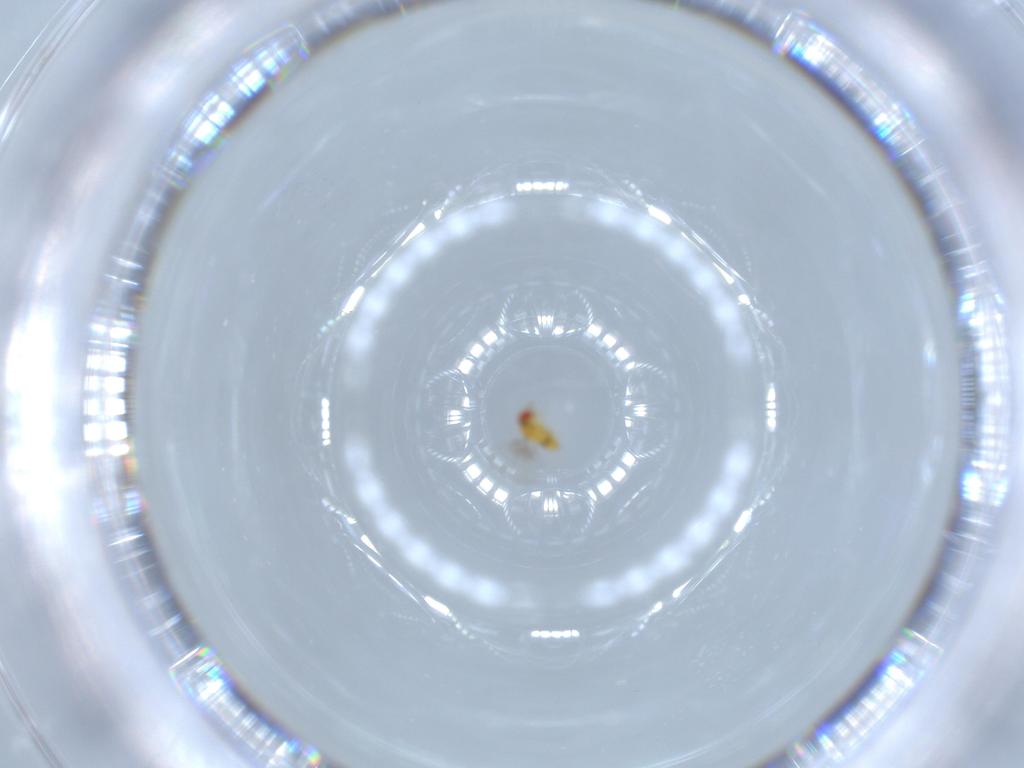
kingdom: Animalia
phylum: Arthropoda
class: Insecta
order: Hymenoptera
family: Trichogrammatidae
